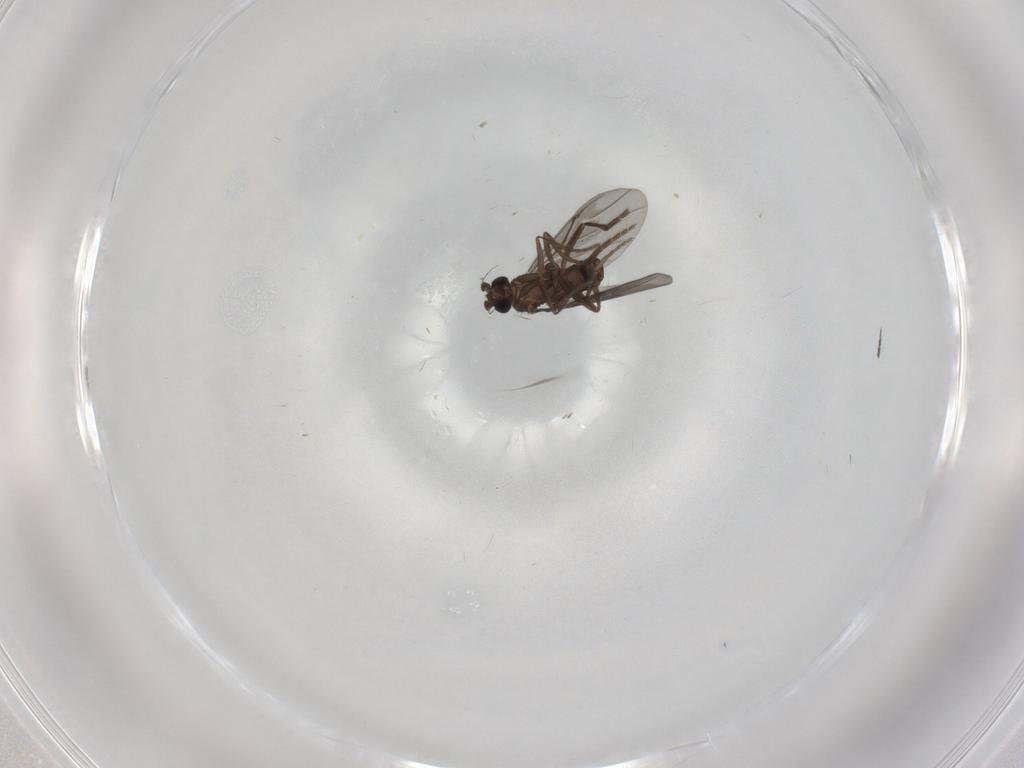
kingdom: Animalia
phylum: Arthropoda
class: Insecta
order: Diptera
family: Phoridae
